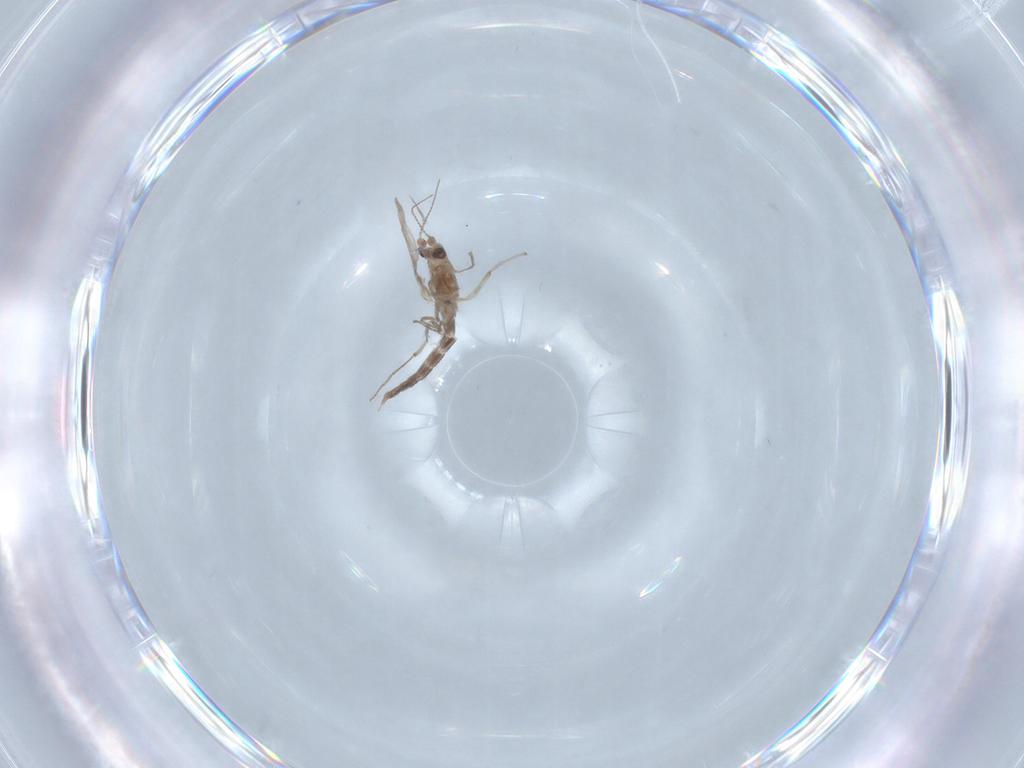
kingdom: Animalia
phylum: Arthropoda
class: Insecta
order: Diptera
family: Chironomidae
